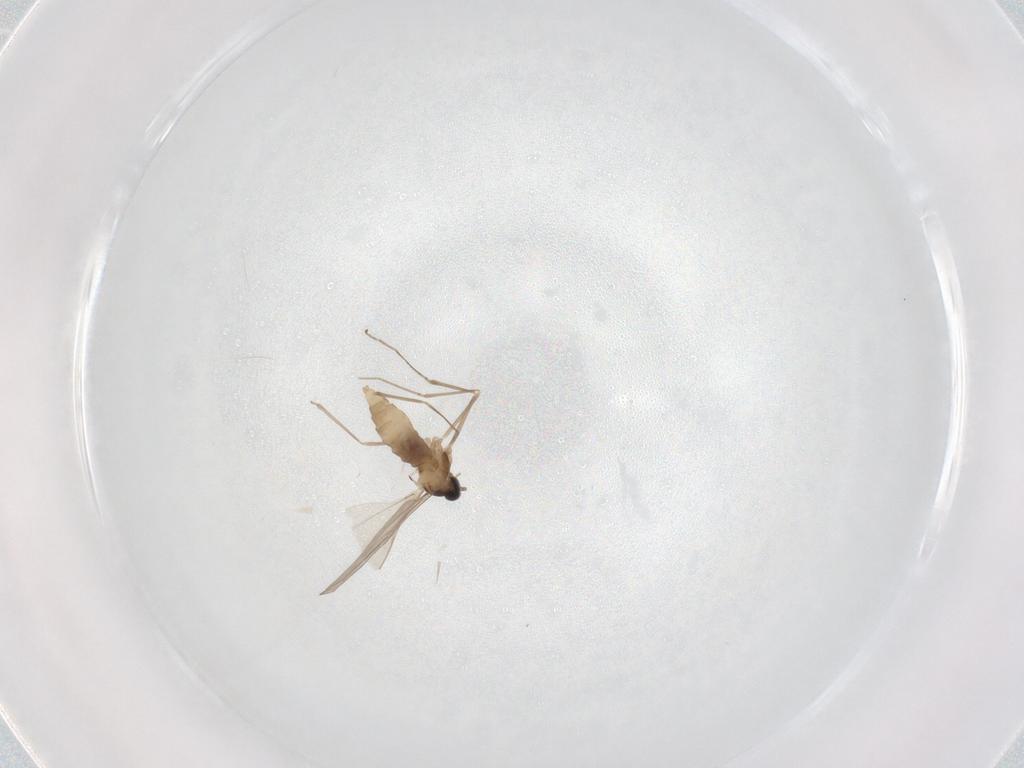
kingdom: Animalia
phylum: Arthropoda
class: Insecta
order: Diptera
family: Cecidomyiidae
